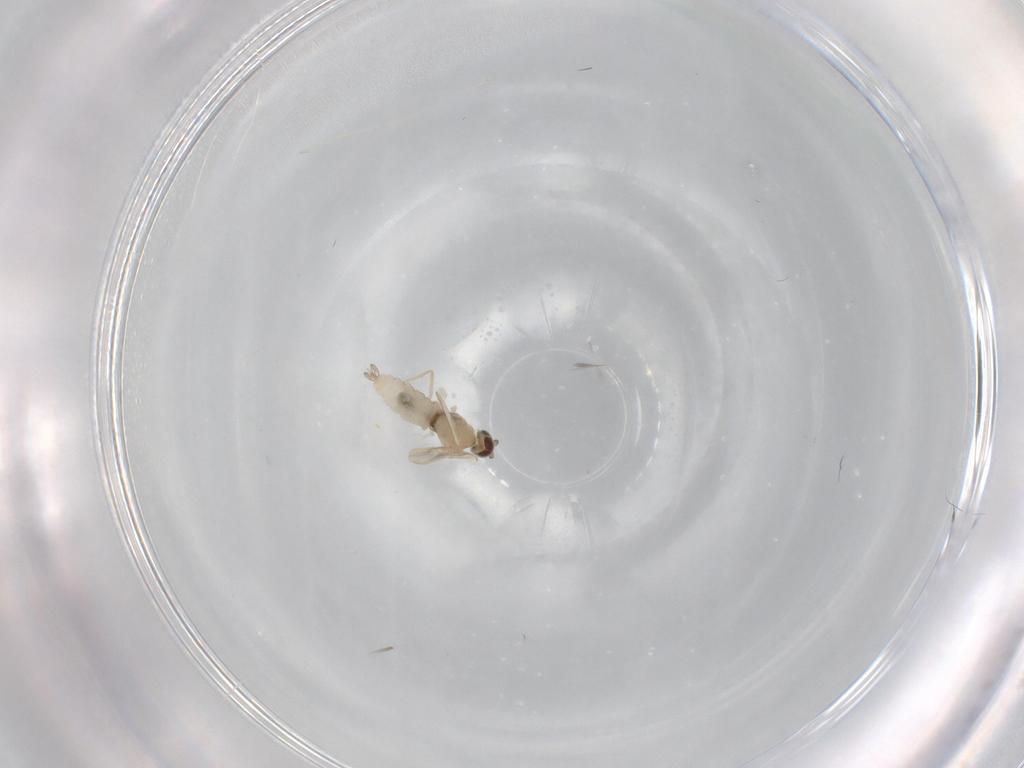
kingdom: Animalia
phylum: Arthropoda
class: Insecta
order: Diptera
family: Cecidomyiidae
